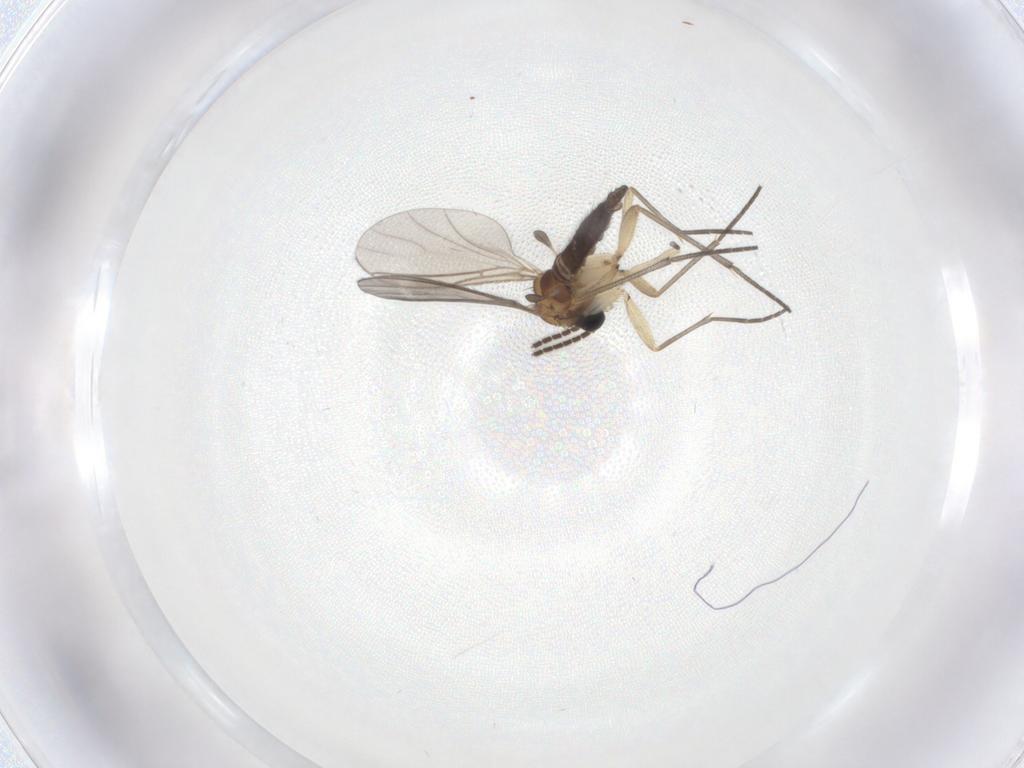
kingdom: Animalia
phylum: Arthropoda
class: Insecta
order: Diptera
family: Sciaridae
